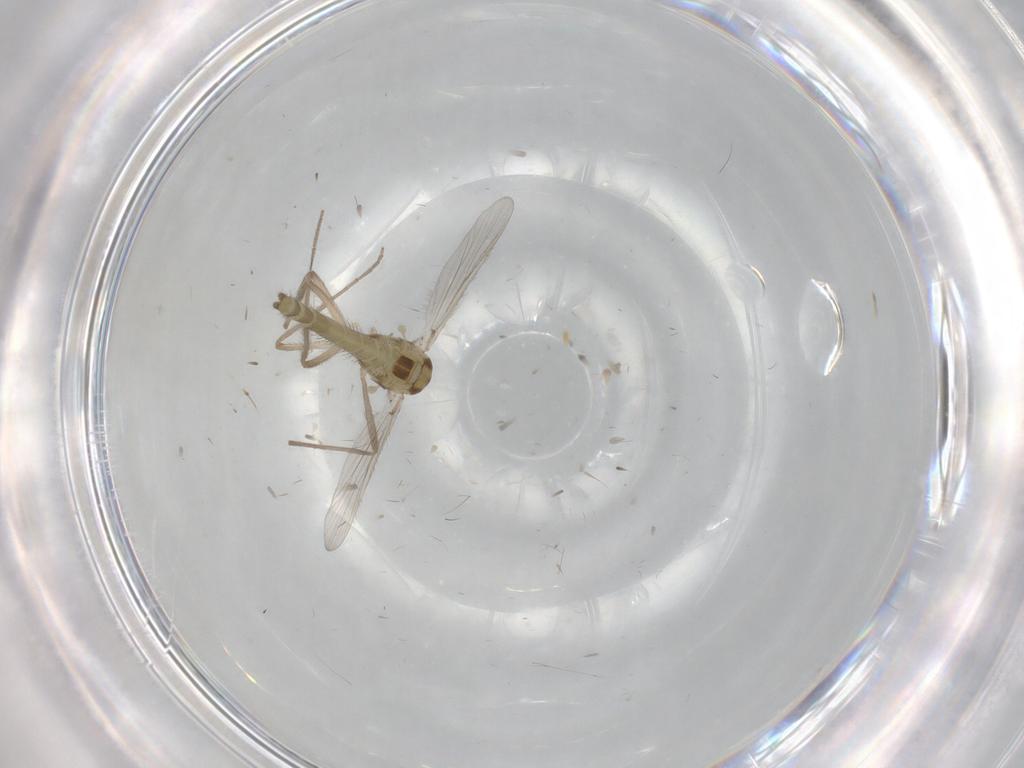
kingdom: Animalia
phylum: Arthropoda
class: Insecta
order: Diptera
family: Chironomidae
